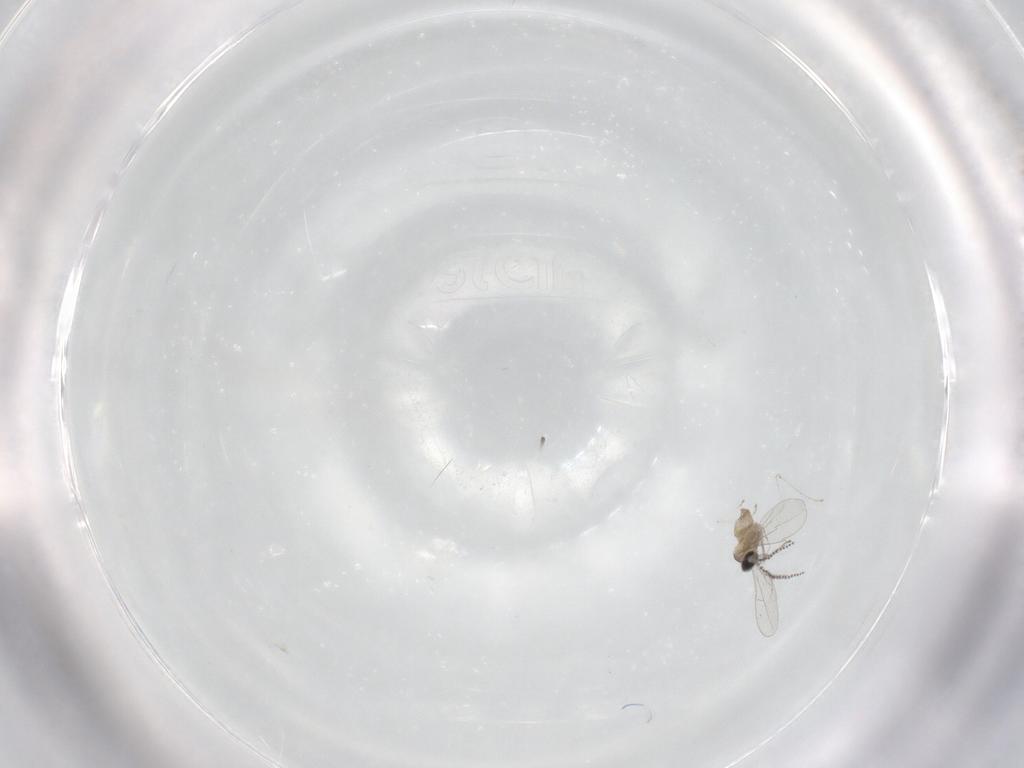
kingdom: Animalia
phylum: Arthropoda
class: Insecta
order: Diptera
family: Cecidomyiidae
